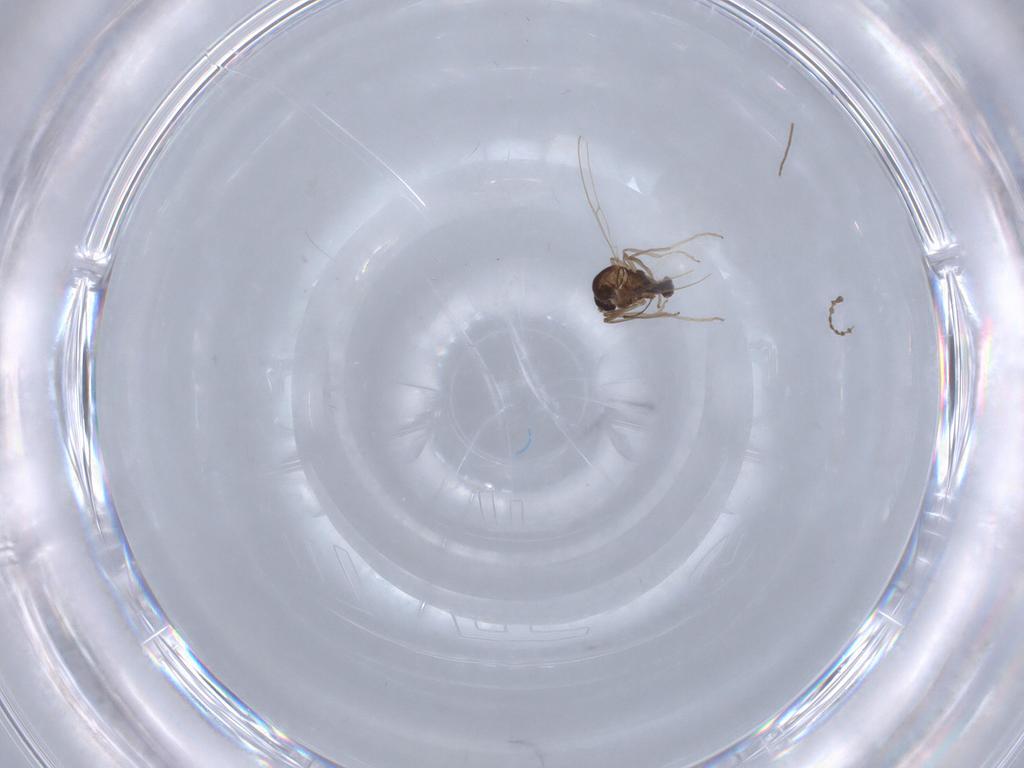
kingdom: Animalia
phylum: Arthropoda
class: Insecta
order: Diptera
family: Cecidomyiidae
